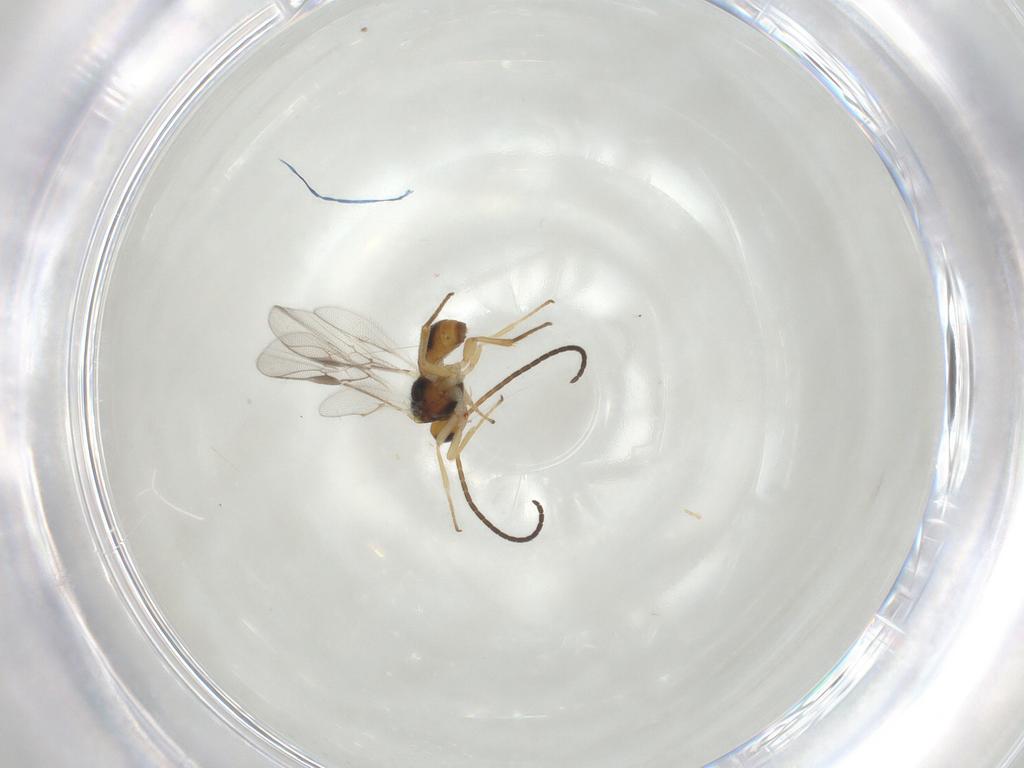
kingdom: Animalia
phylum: Arthropoda
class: Insecta
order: Hymenoptera
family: Braconidae
